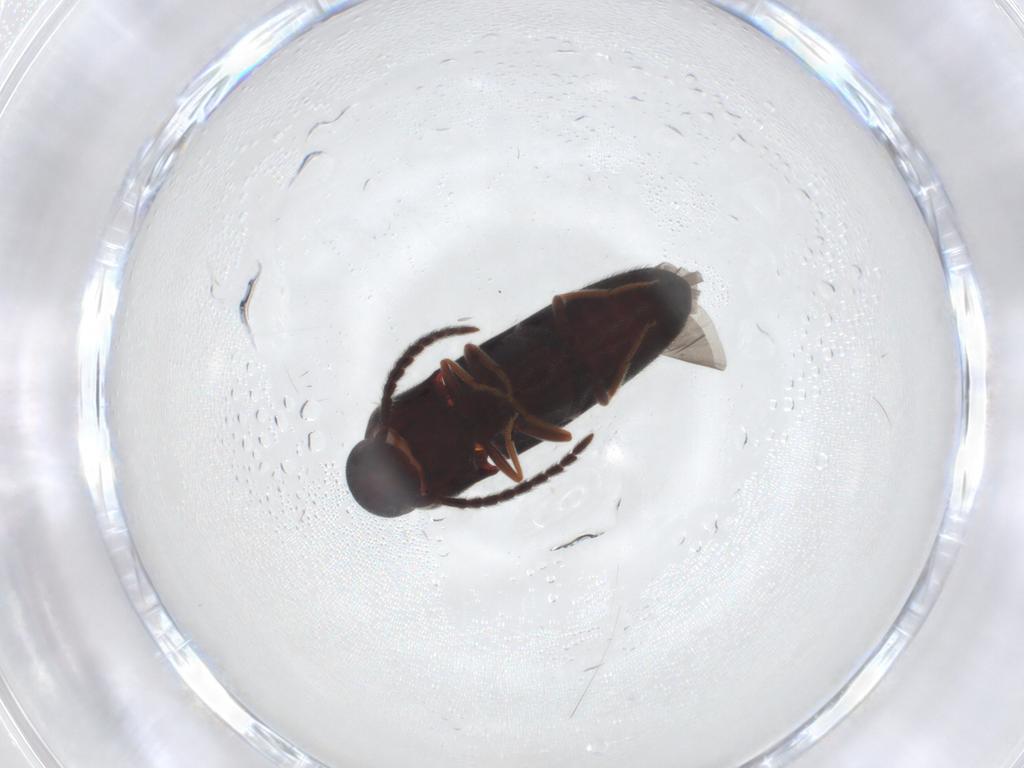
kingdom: Animalia
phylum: Arthropoda
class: Insecta
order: Coleoptera
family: Eucnemidae
